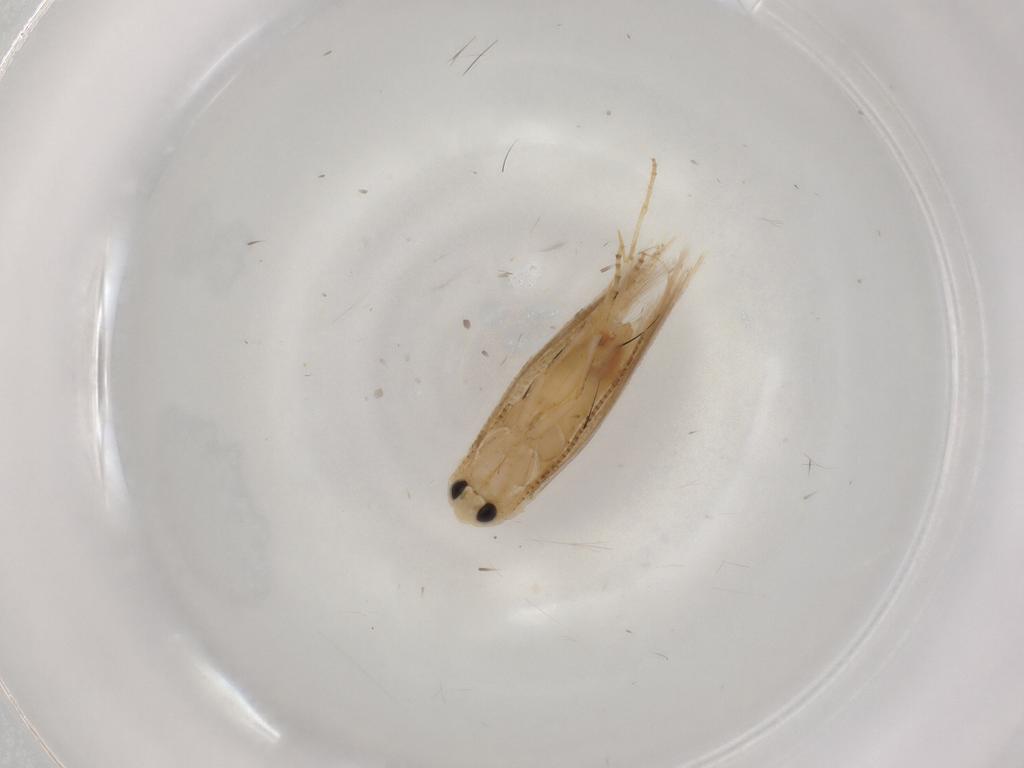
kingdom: Animalia
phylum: Arthropoda
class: Insecta
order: Lepidoptera
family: Bucculatricidae
